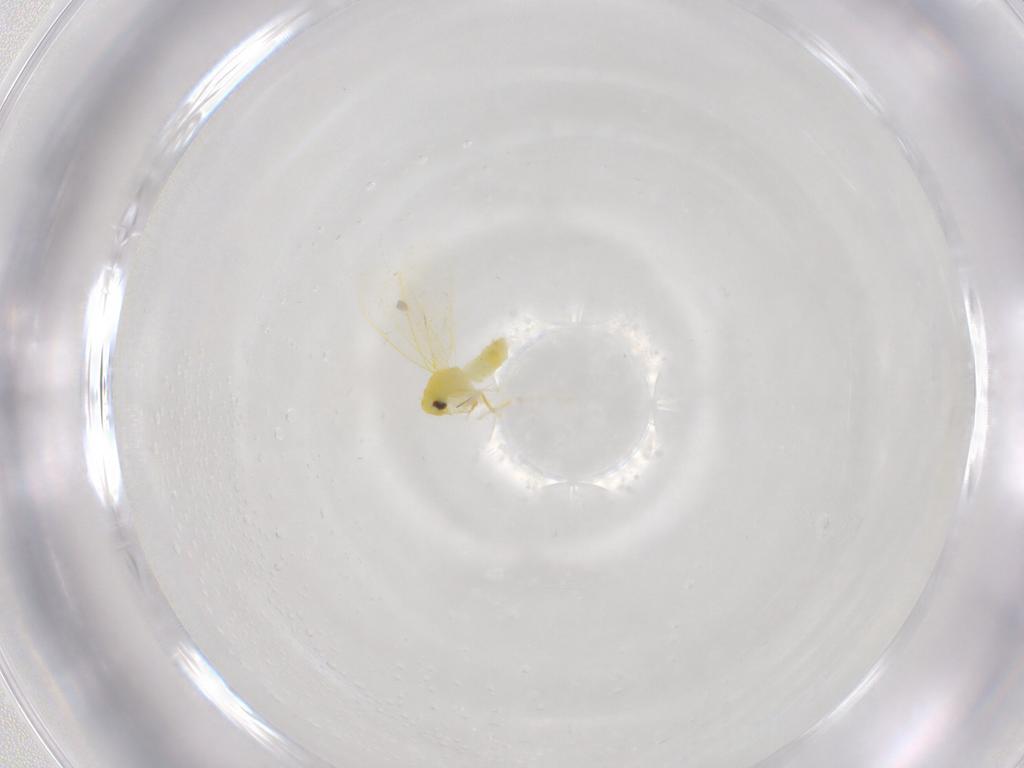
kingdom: Animalia
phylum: Arthropoda
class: Insecta
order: Hemiptera
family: Aleyrodidae
